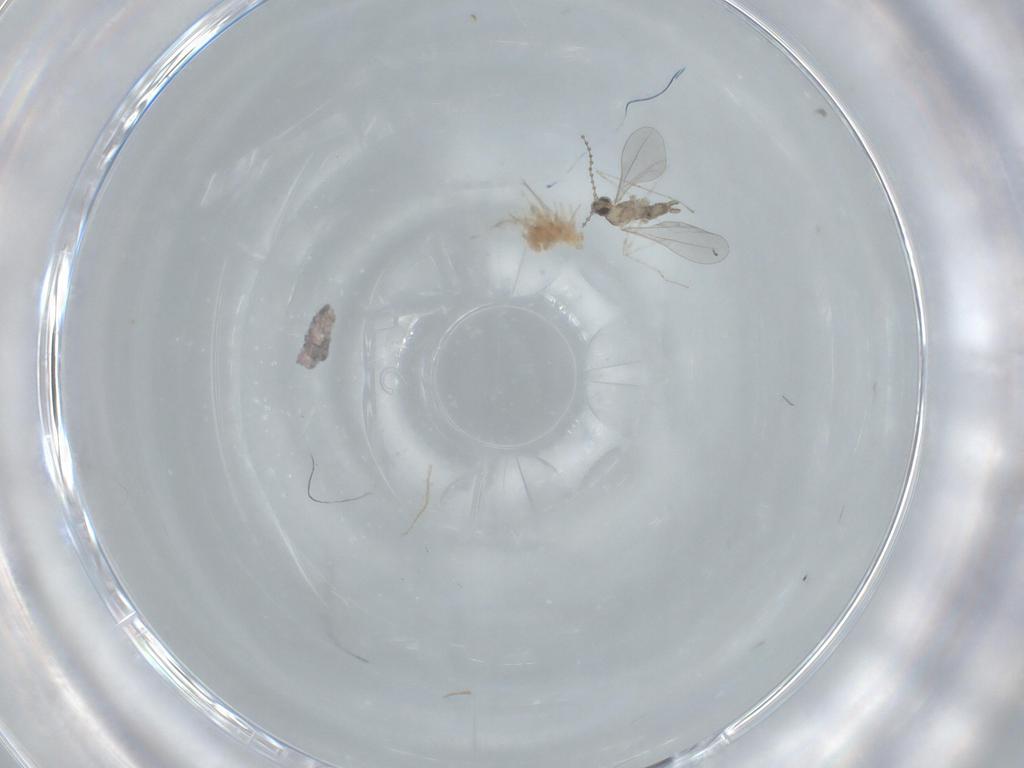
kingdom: Animalia
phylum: Arthropoda
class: Insecta
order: Diptera
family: Cecidomyiidae
